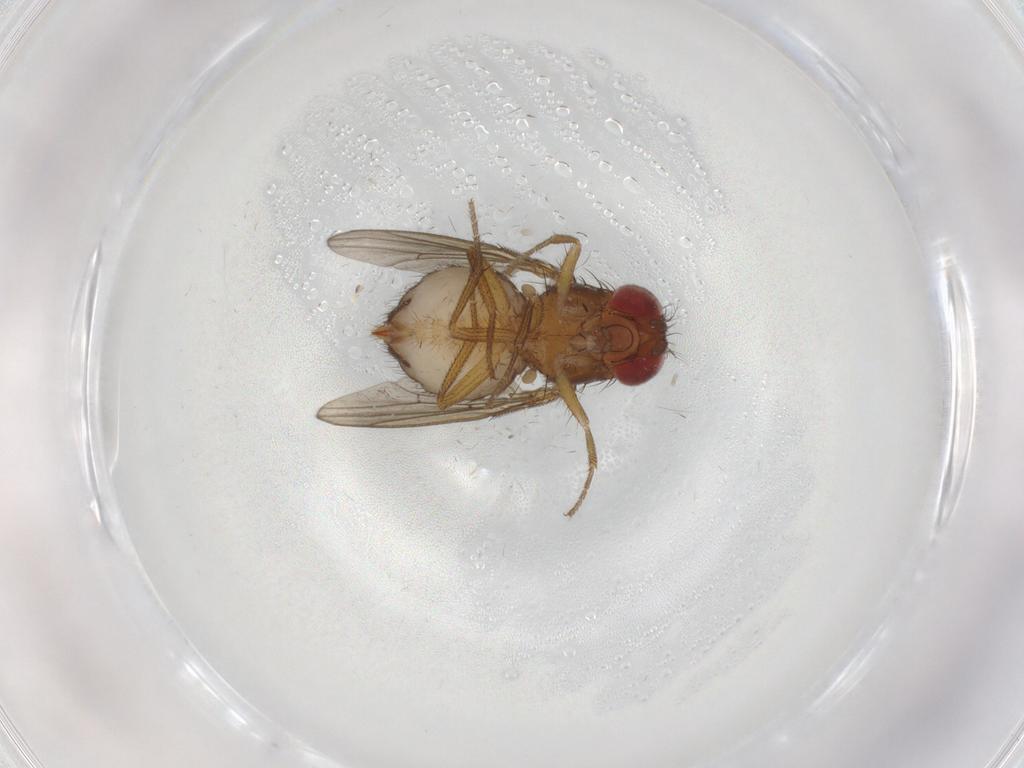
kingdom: Animalia
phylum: Arthropoda
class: Insecta
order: Diptera
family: Drosophilidae
